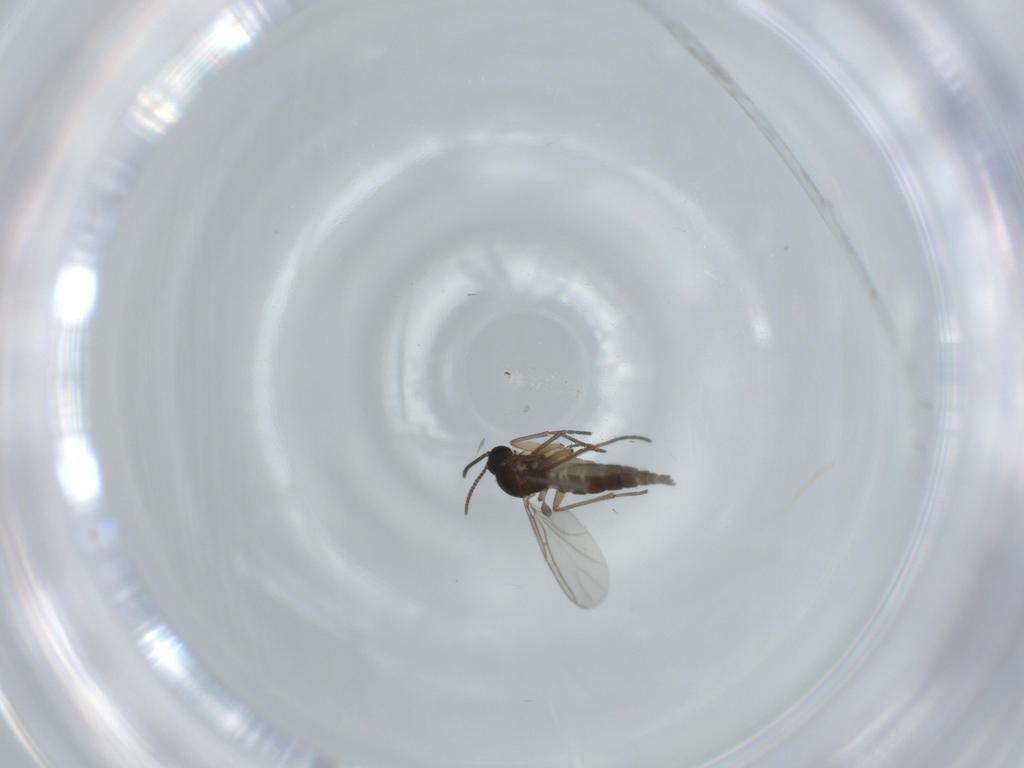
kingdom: Animalia
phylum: Arthropoda
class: Insecta
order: Diptera
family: Sciaridae
